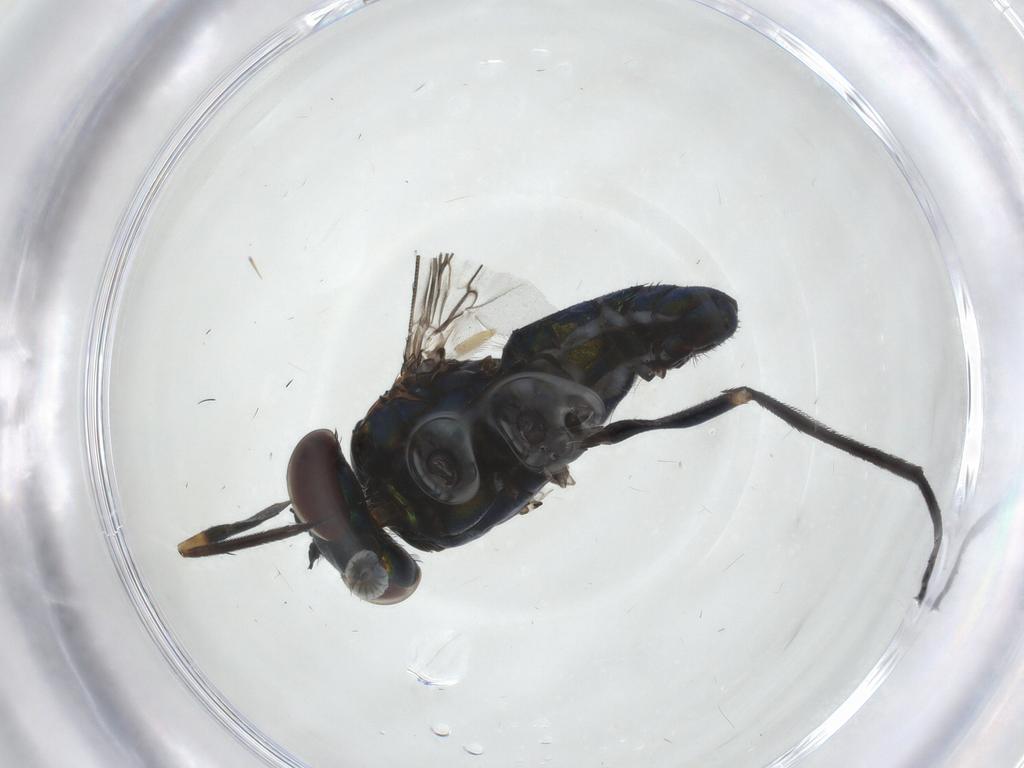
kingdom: Animalia
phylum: Arthropoda
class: Insecta
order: Diptera
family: Dolichopodidae
